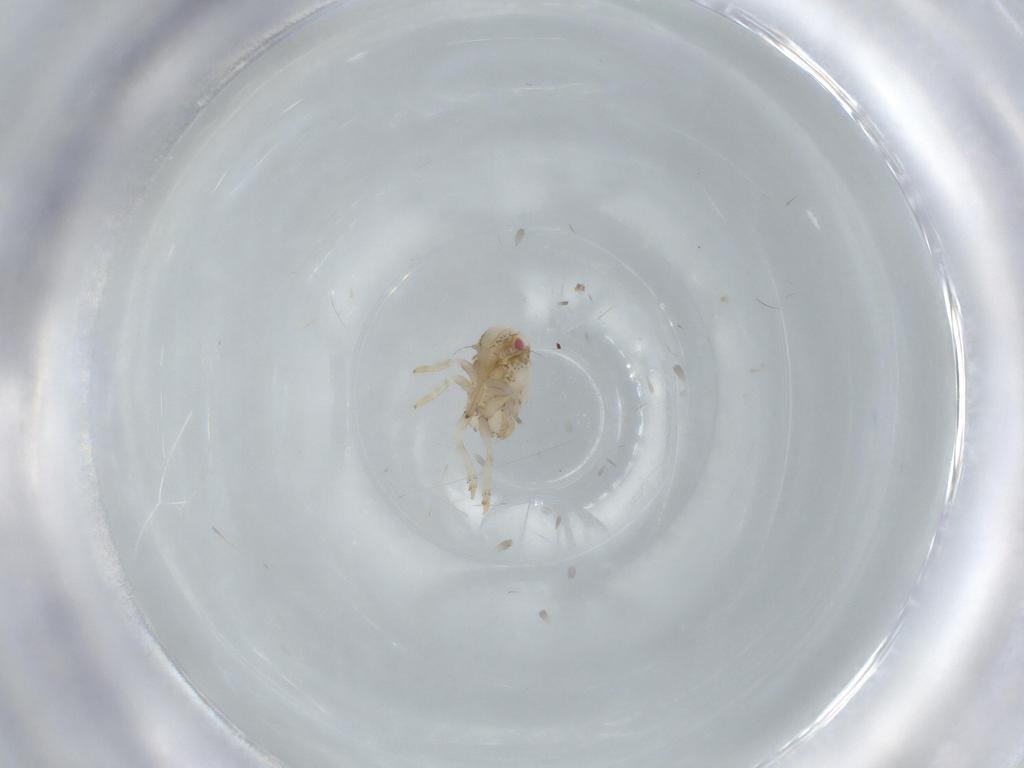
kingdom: Animalia
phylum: Arthropoda
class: Insecta
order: Hemiptera
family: Acanaloniidae
